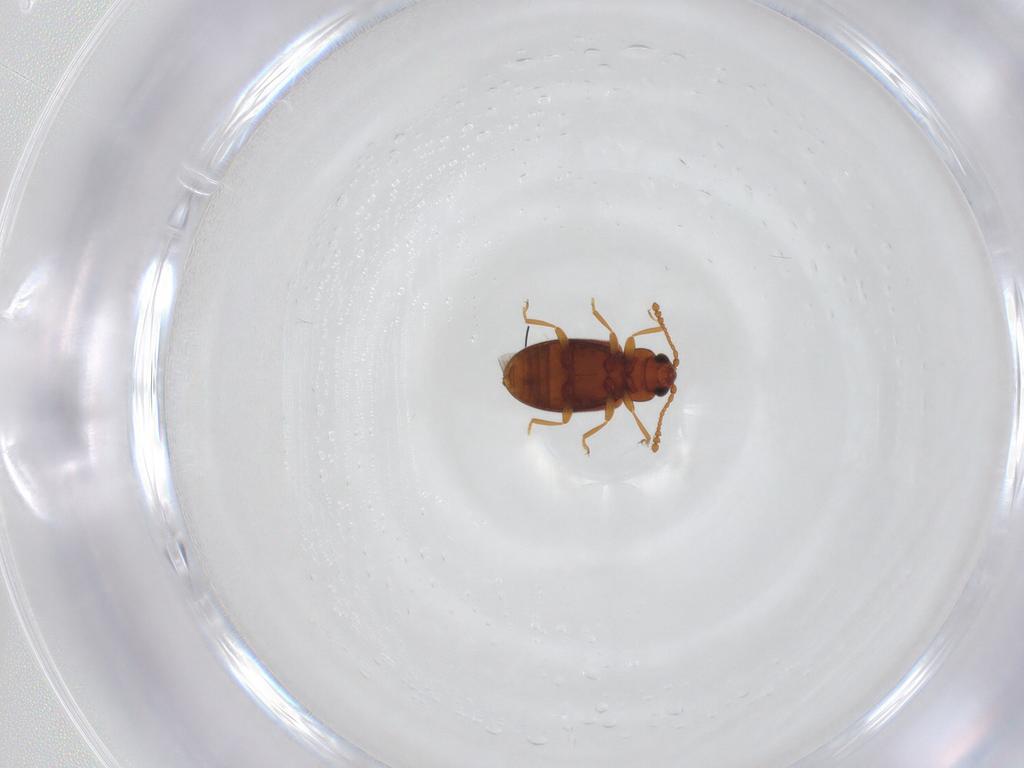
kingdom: Animalia
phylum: Arthropoda
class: Insecta
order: Coleoptera
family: Cryptophagidae
